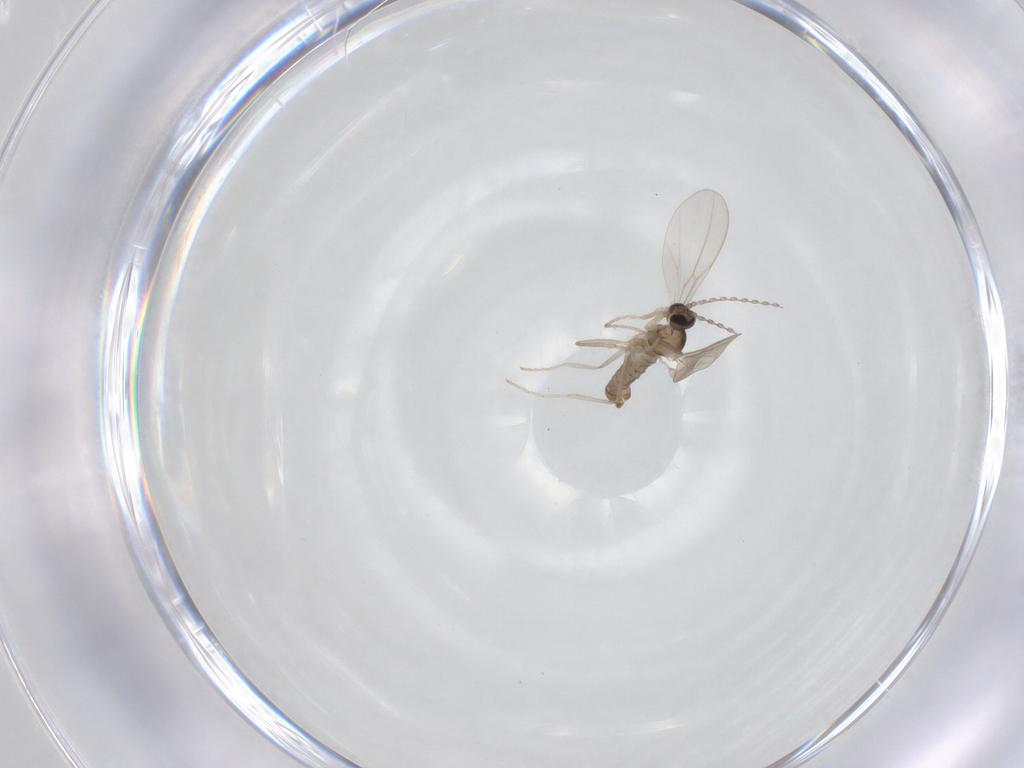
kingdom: Animalia
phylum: Arthropoda
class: Insecta
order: Diptera
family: Cecidomyiidae
